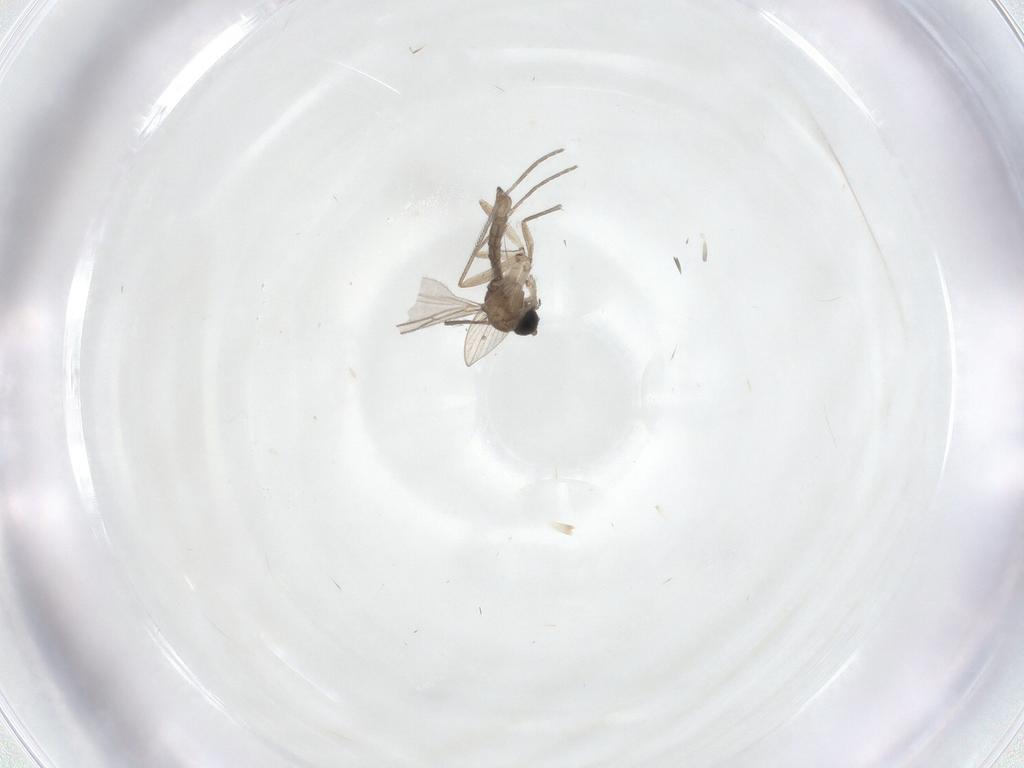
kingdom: Animalia
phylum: Arthropoda
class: Insecta
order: Diptera
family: Sciaridae
